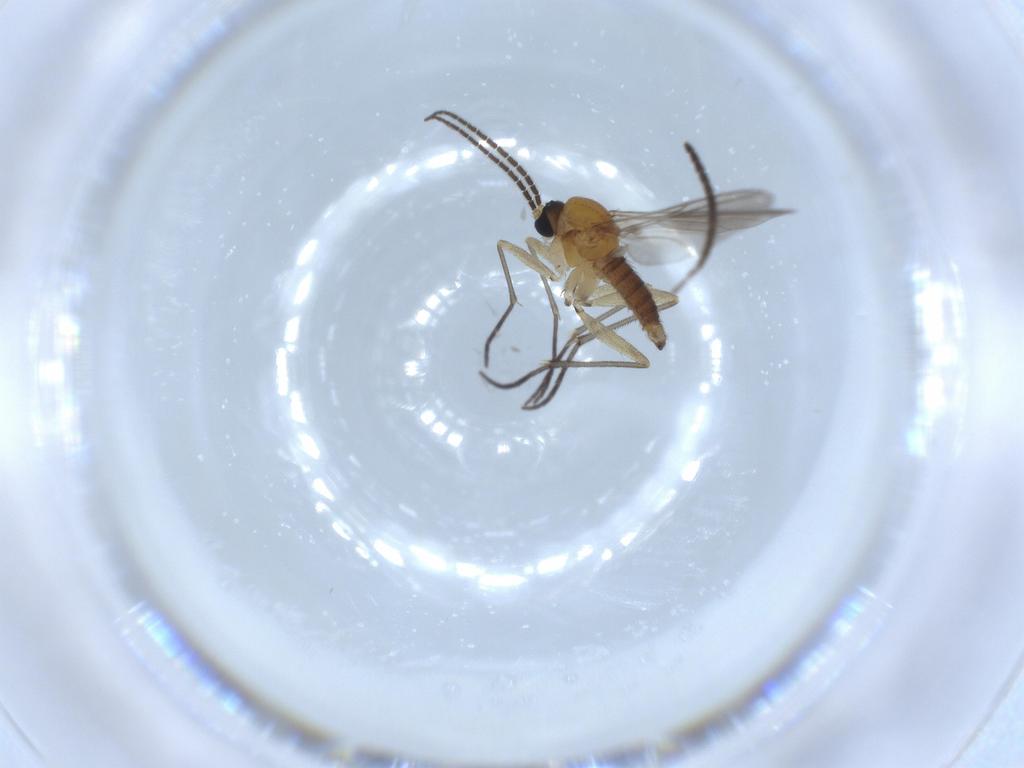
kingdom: Animalia
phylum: Arthropoda
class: Insecta
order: Diptera
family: Sciaridae
